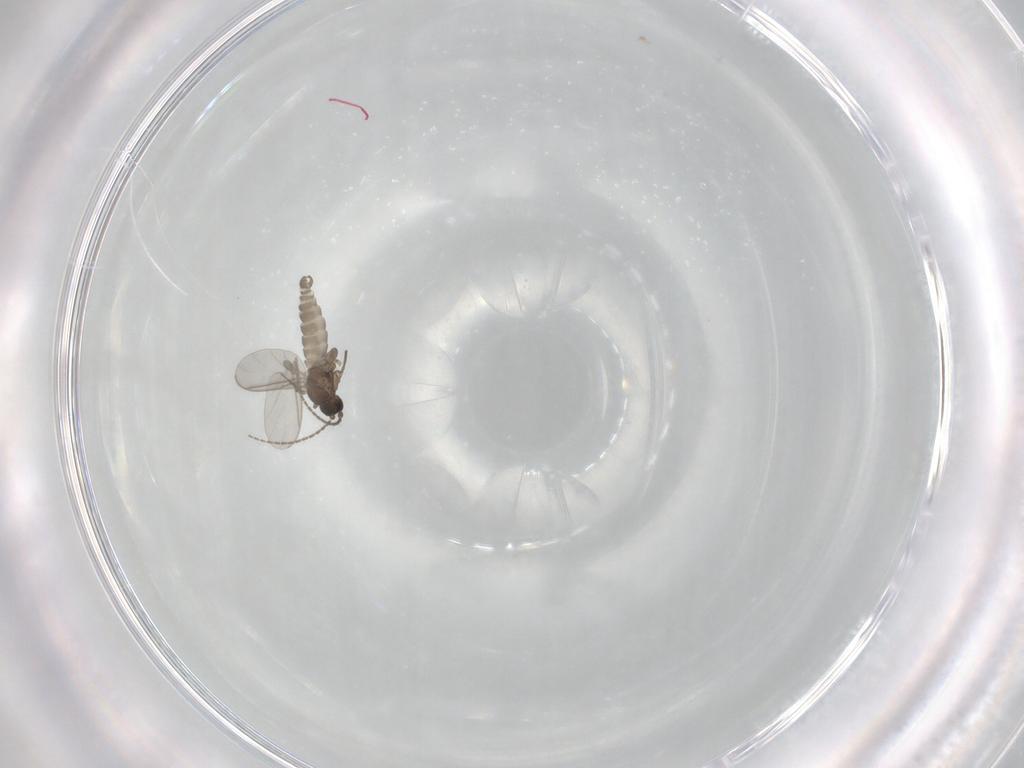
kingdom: Animalia
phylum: Arthropoda
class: Insecta
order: Diptera
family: Sciaridae
